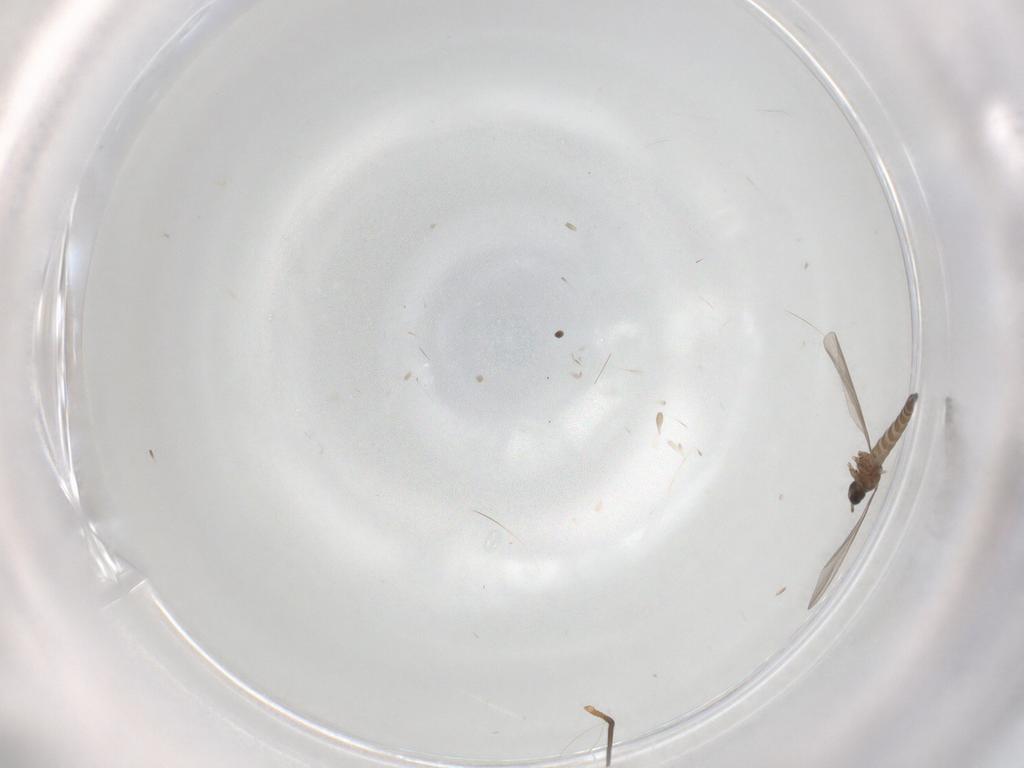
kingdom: Animalia
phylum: Arthropoda
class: Insecta
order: Diptera
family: Sciaridae
